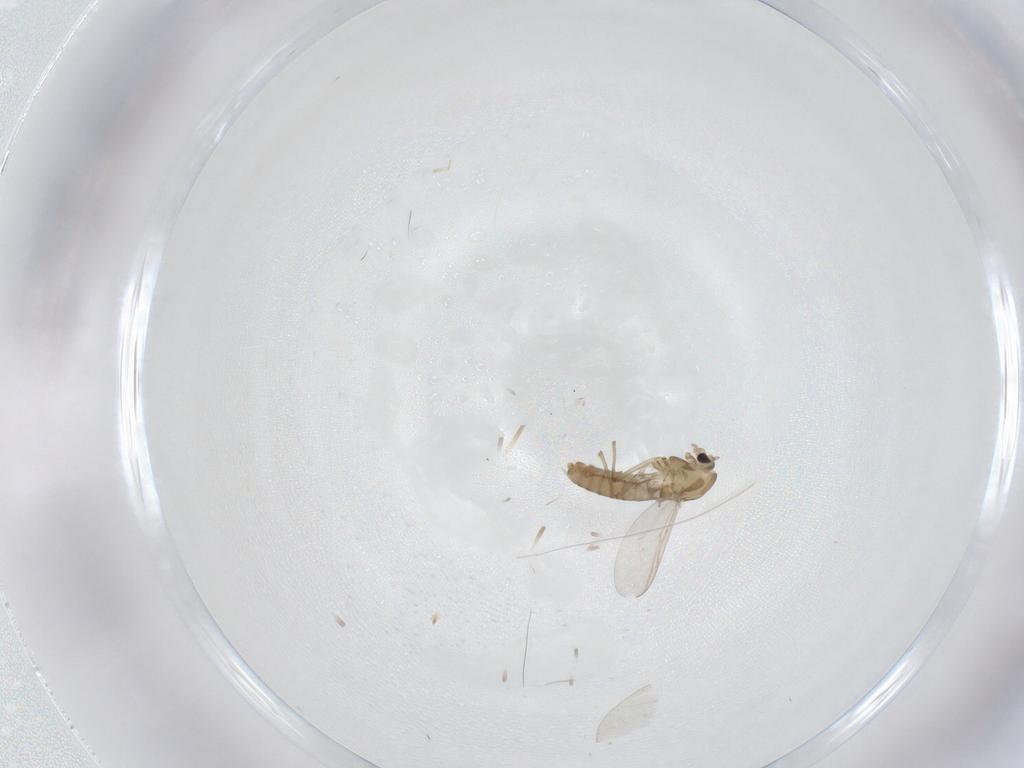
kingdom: Animalia
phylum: Arthropoda
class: Insecta
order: Diptera
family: Chironomidae
